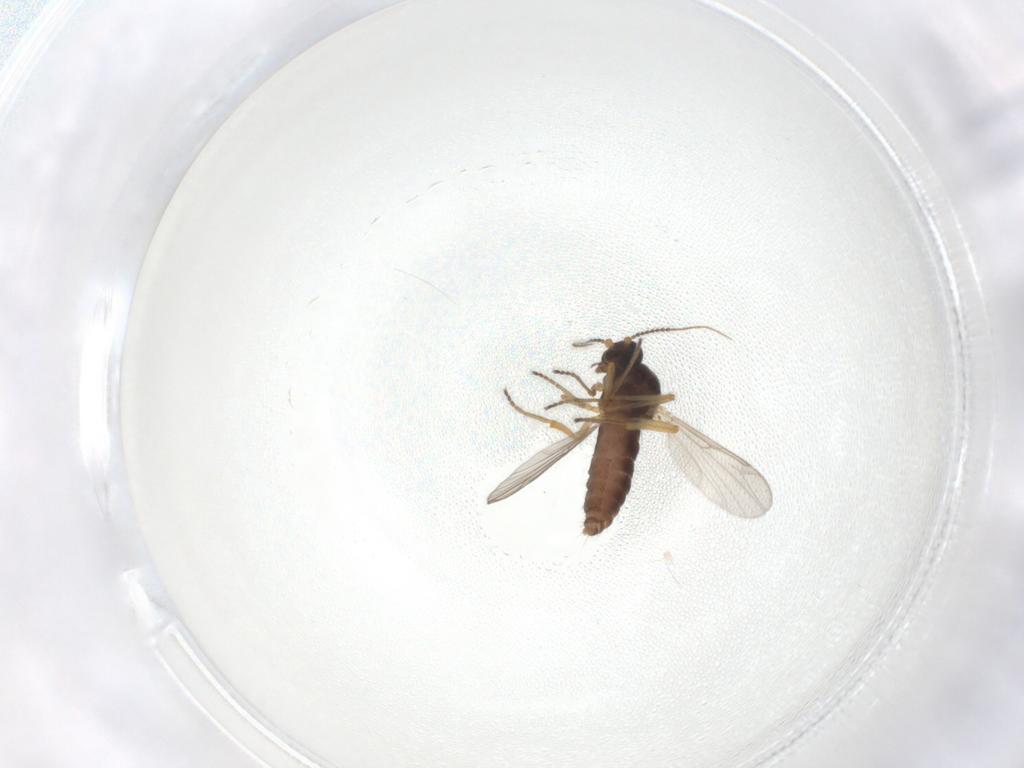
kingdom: Animalia
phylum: Arthropoda
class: Insecta
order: Diptera
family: Ceratopogonidae
